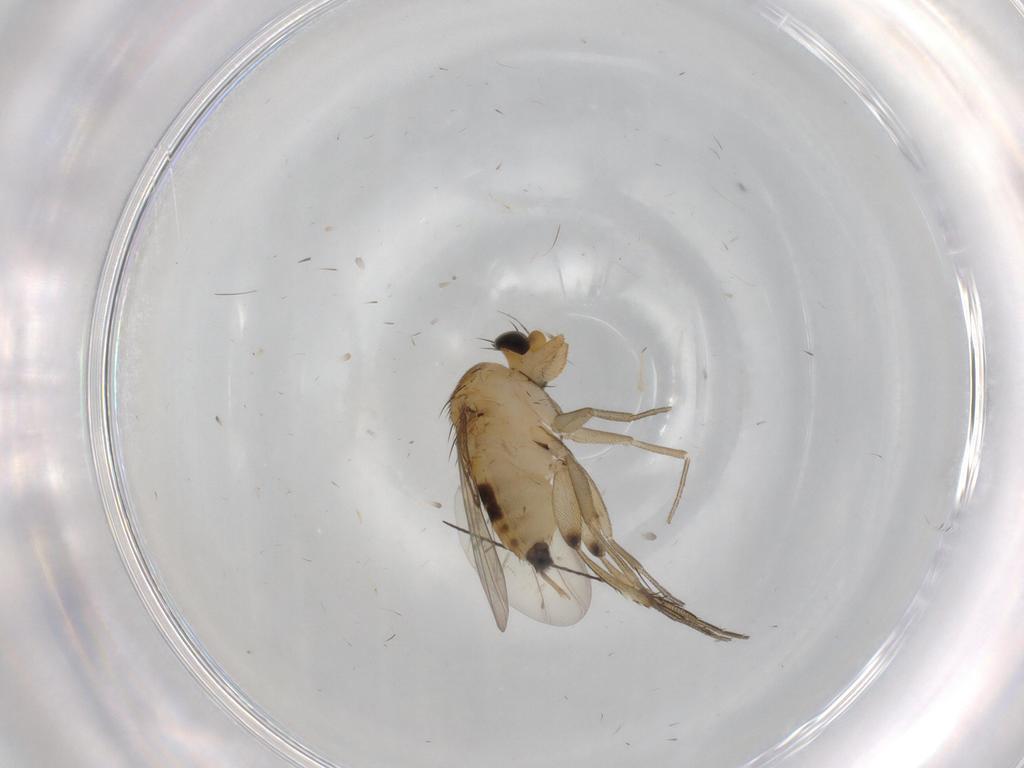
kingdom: Animalia
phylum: Arthropoda
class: Insecta
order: Diptera
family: Phoridae
